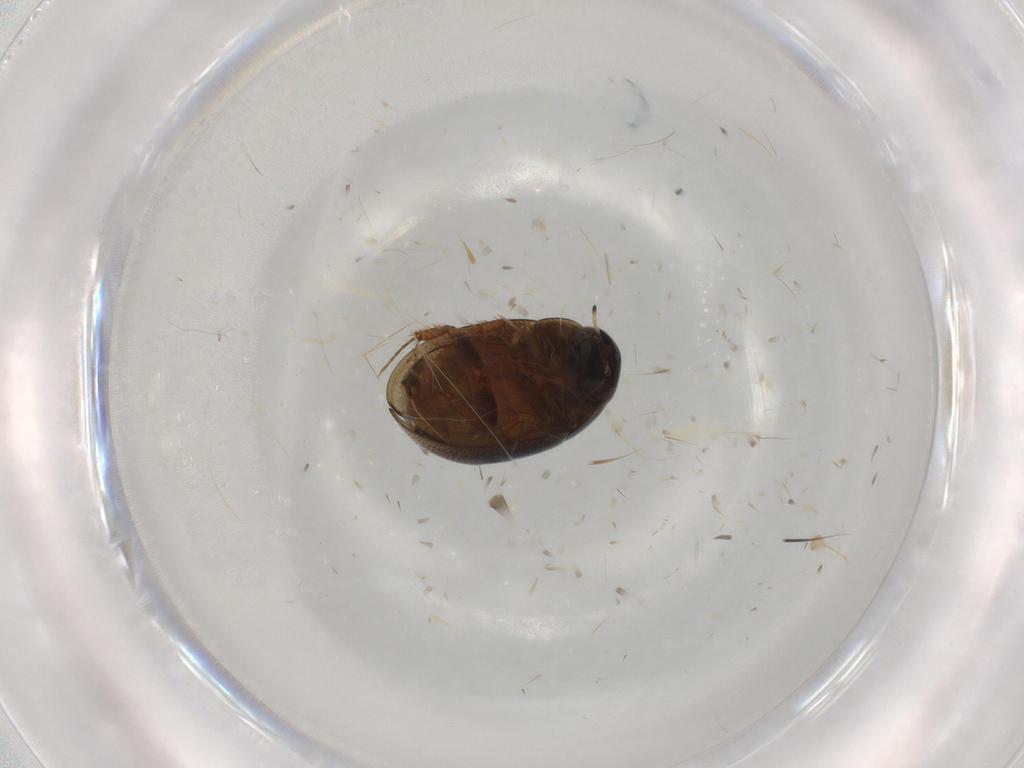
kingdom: Animalia
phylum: Arthropoda
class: Insecta
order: Coleoptera
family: Hydrophilidae
